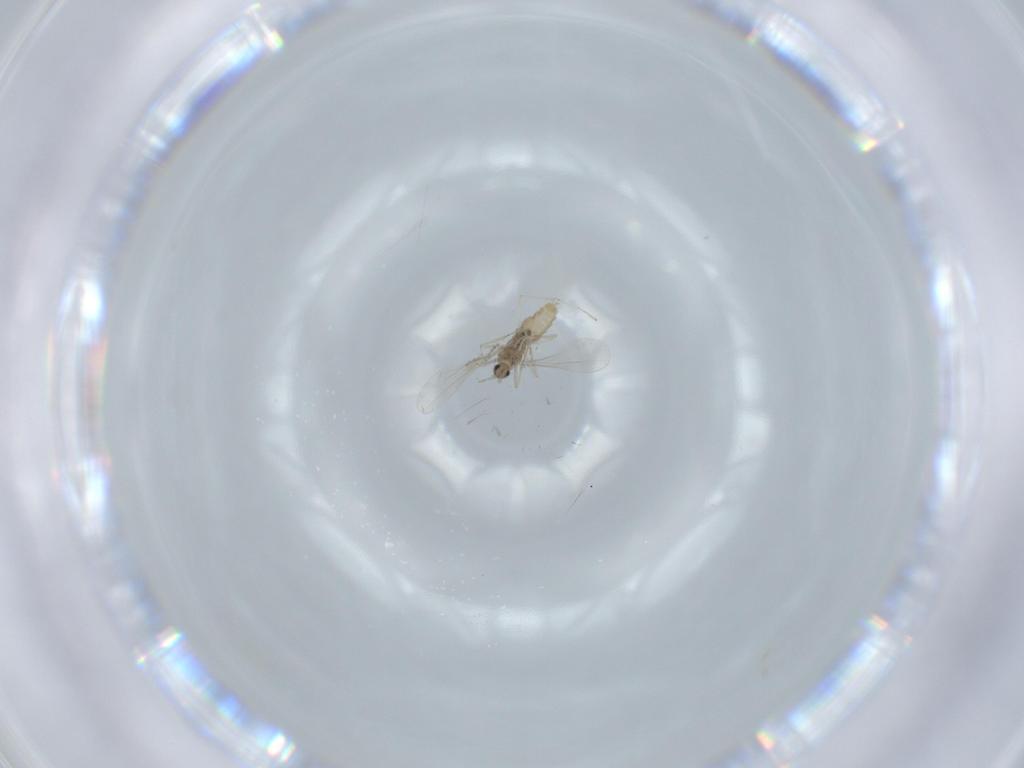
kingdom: Animalia
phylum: Arthropoda
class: Insecta
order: Diptera
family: Cecidomyiidae
